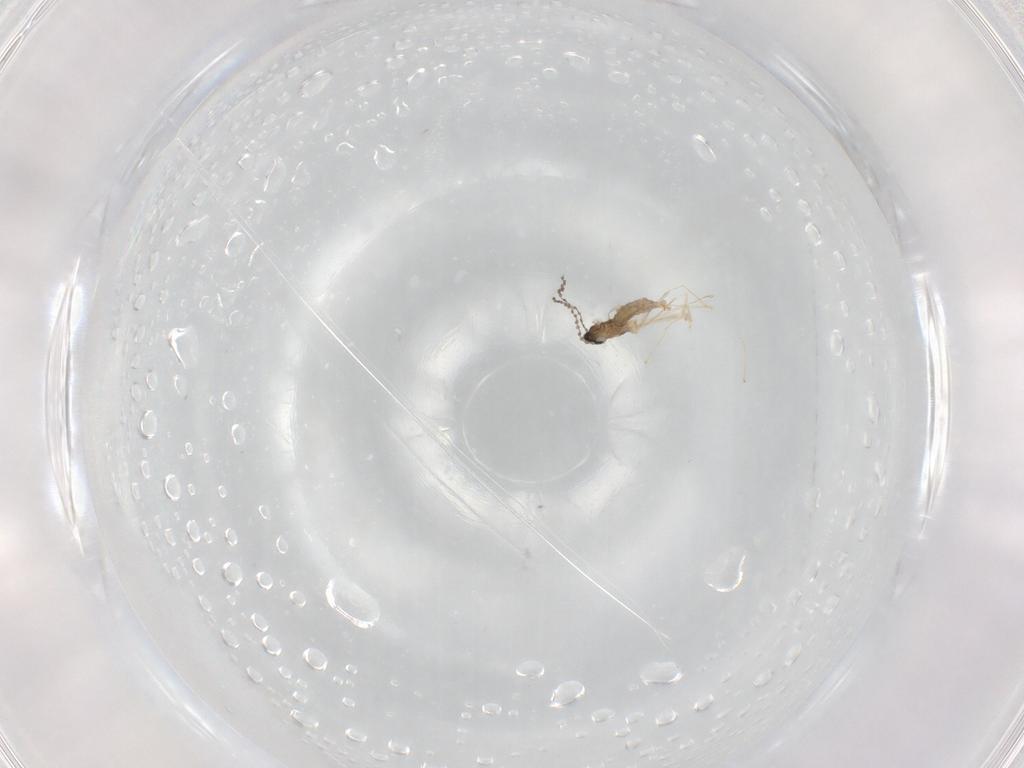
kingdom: Animalia
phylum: Arthropoda
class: Insecta
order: Diptera
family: Cecidomyiidae
